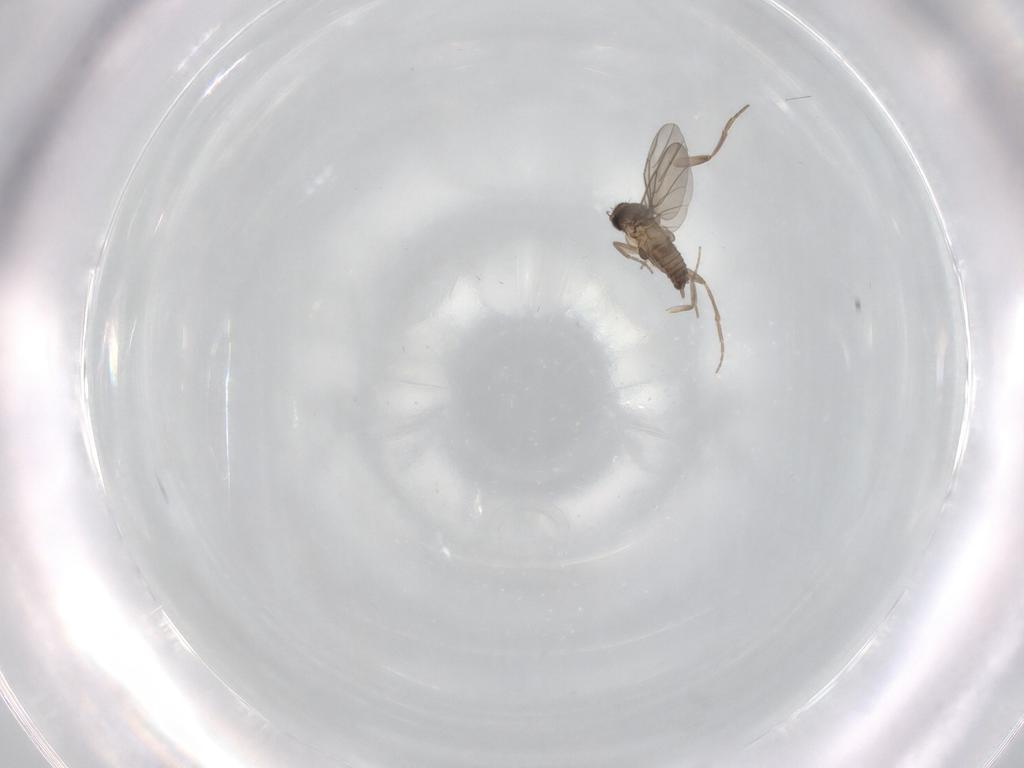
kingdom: Animalia
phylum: Arthropoda
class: Insecta
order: Diptera
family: Phoridae
